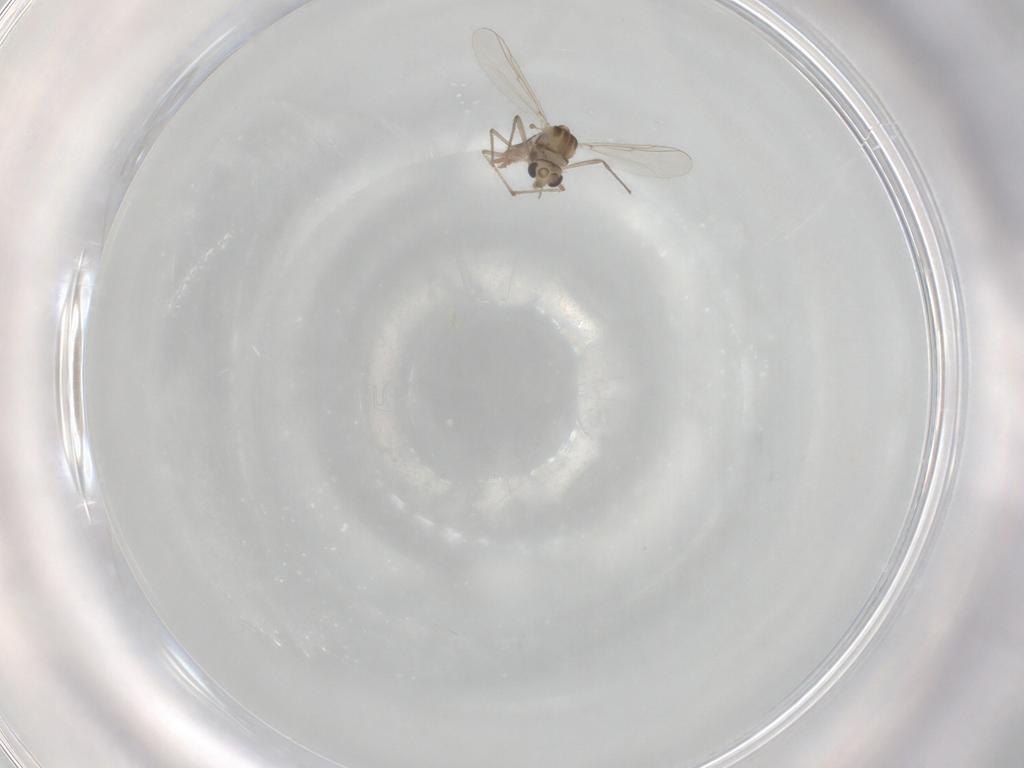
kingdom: Animalia
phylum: Arthropoda
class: Insecta
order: Diptera
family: Chironomidae
